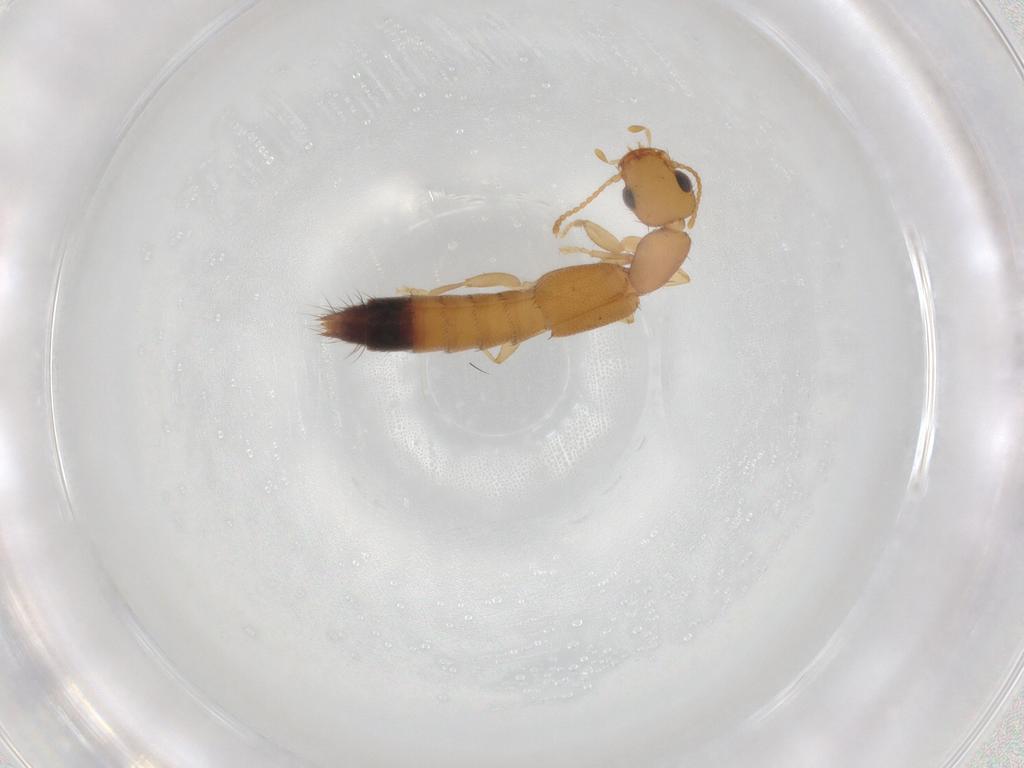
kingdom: Animalia
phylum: Arthropoda
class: Insecta
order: Coleoptera
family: Staphylinidae
